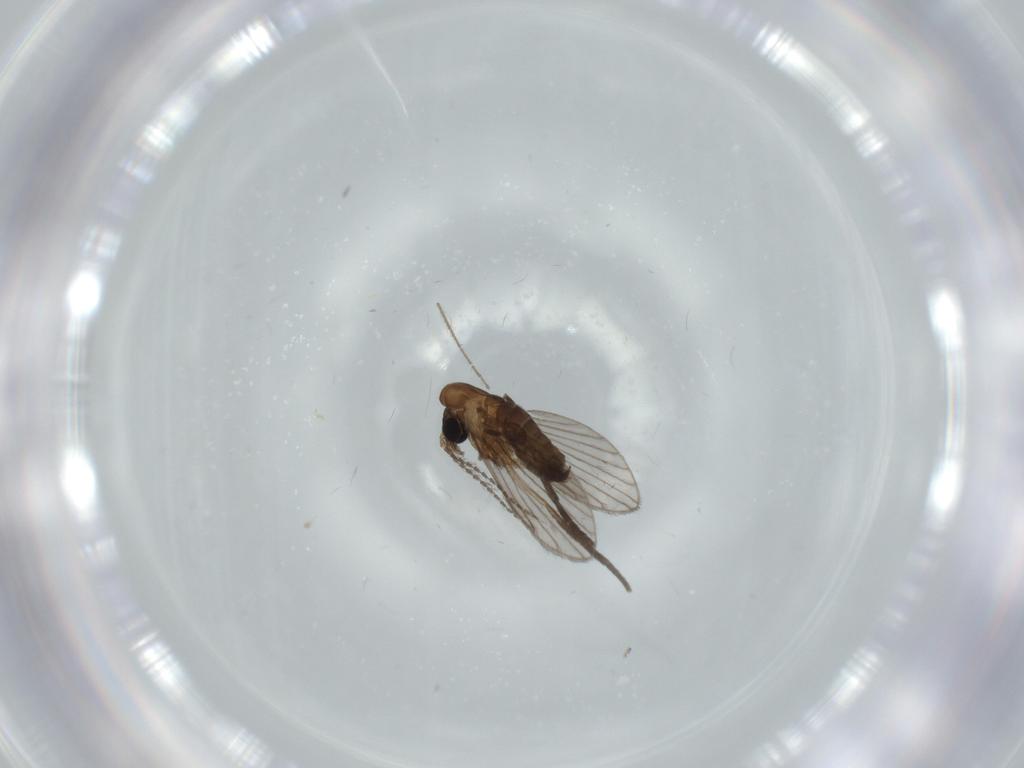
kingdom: Animalia
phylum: Arthropoda
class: Insecta
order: Diptera
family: Psychodidae
